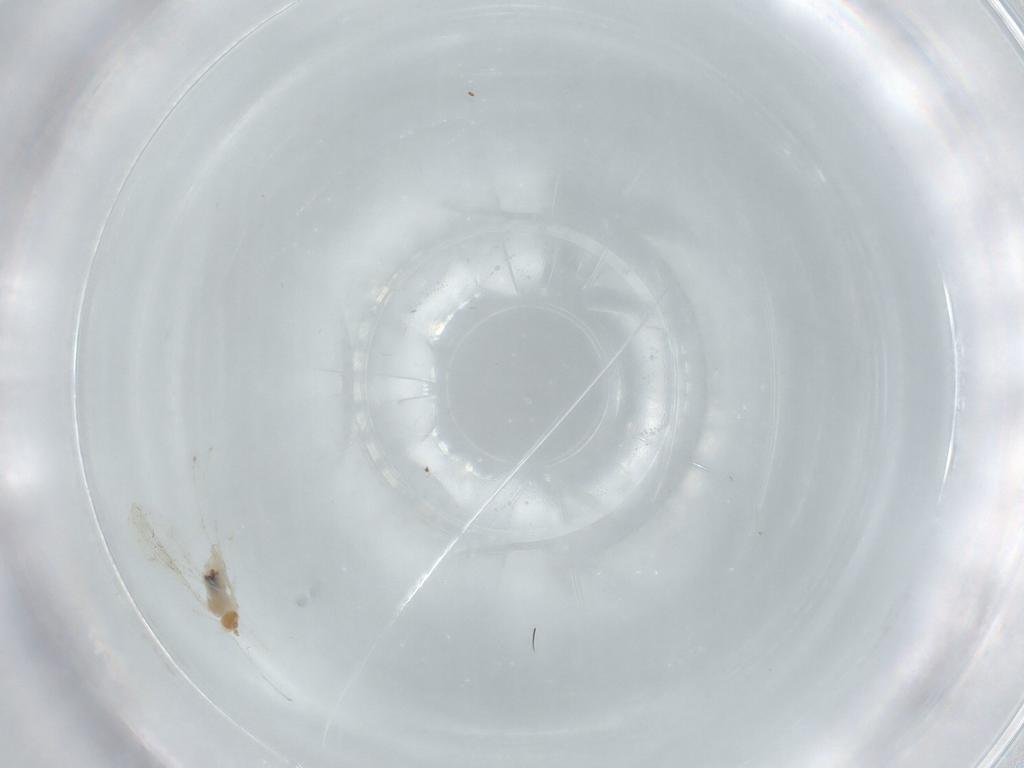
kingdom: Animalia
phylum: Arthropoda
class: Insecta
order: Diptera
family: Cecidomyiidae
